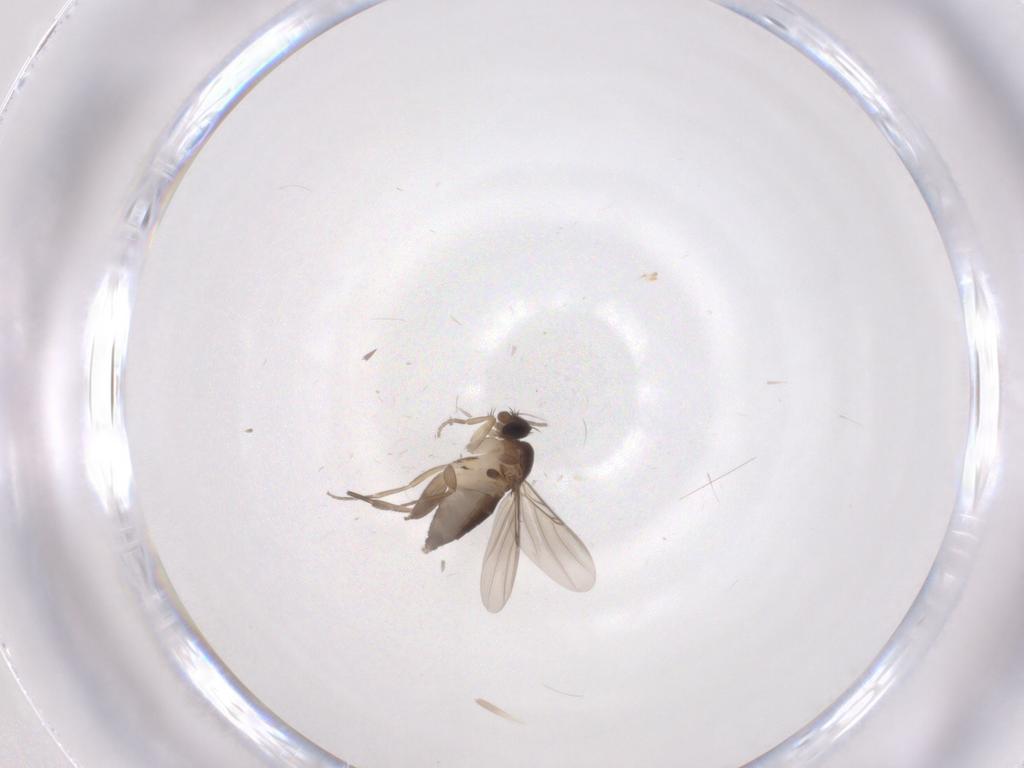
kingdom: Animalia
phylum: Arthropoda
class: Insecta
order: Diptera
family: Phoridae
